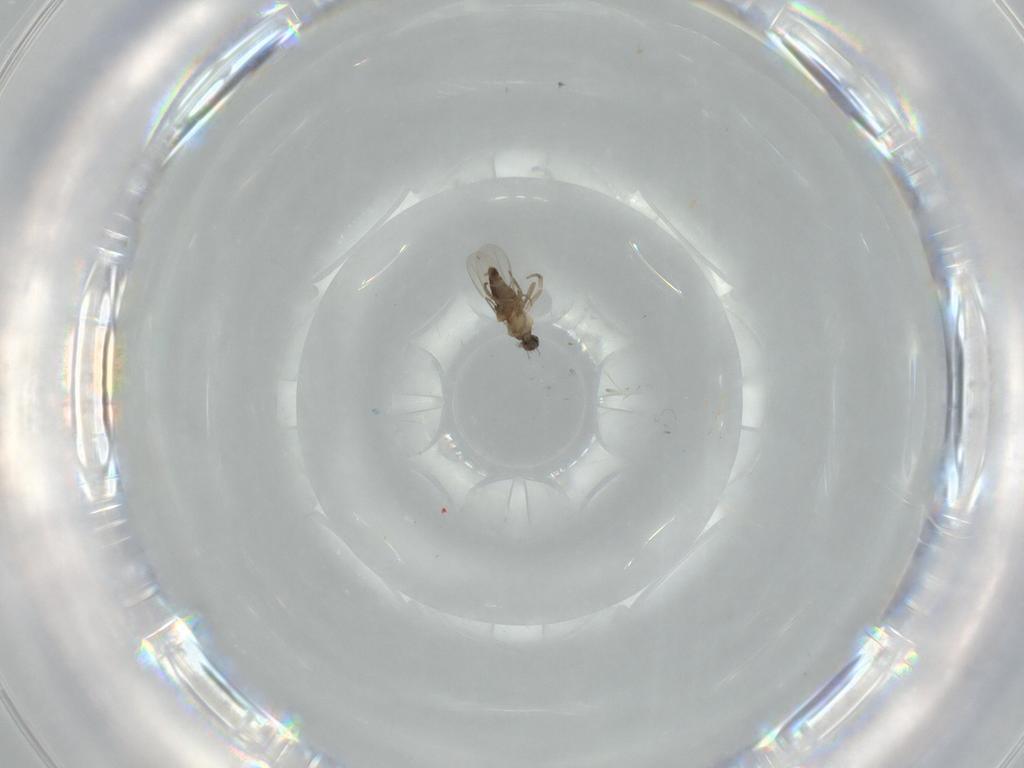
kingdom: Animalia
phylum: Arthropoda
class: Insecta
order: Diptera
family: Phoridae
